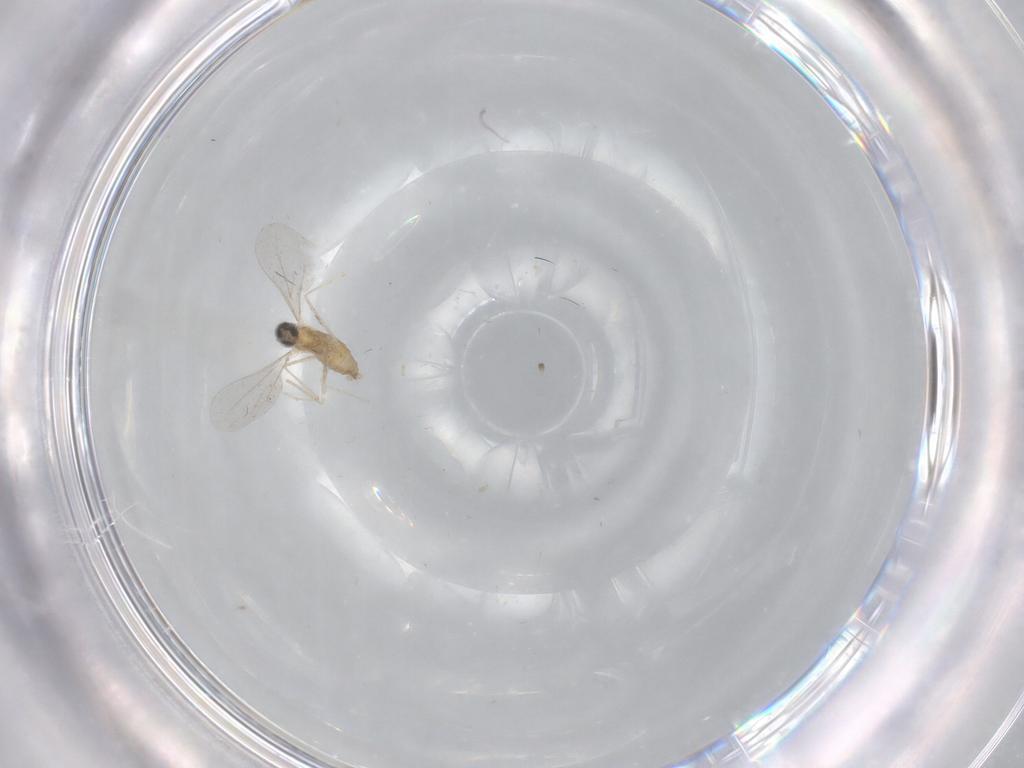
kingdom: Animalia
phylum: Arthropoda
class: Insecta
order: Diptera
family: Cecidomyiidae
